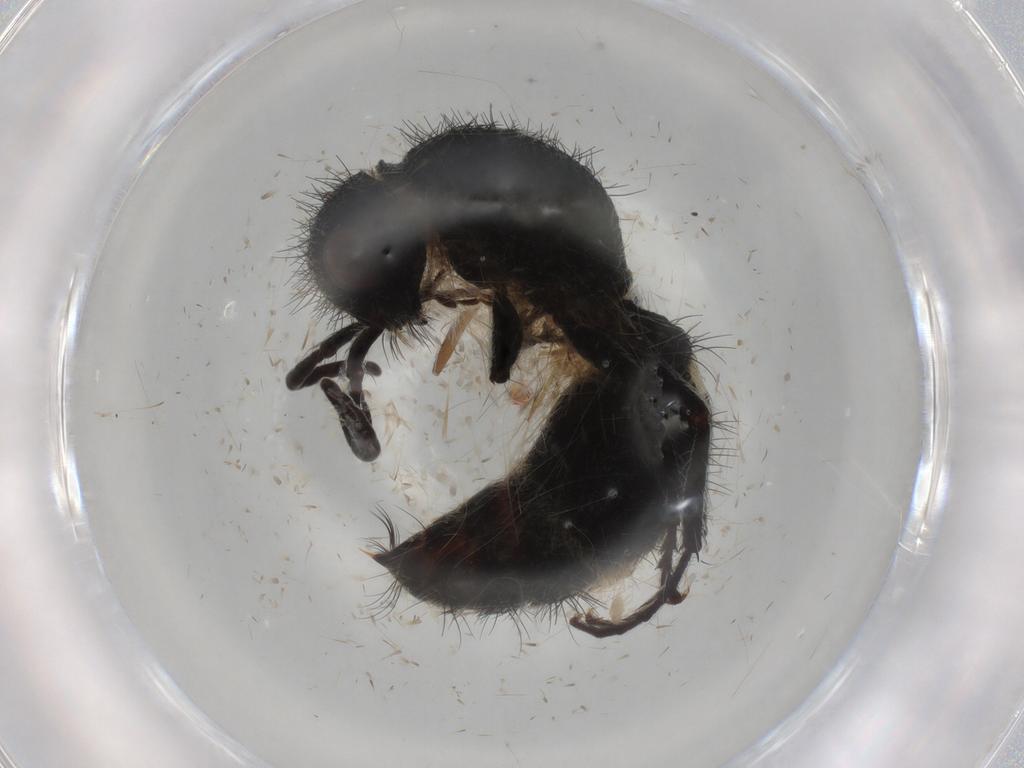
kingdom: Animalia
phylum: Arthropoda
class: Insecta
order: Hymenoptera
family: Aphelinidae
